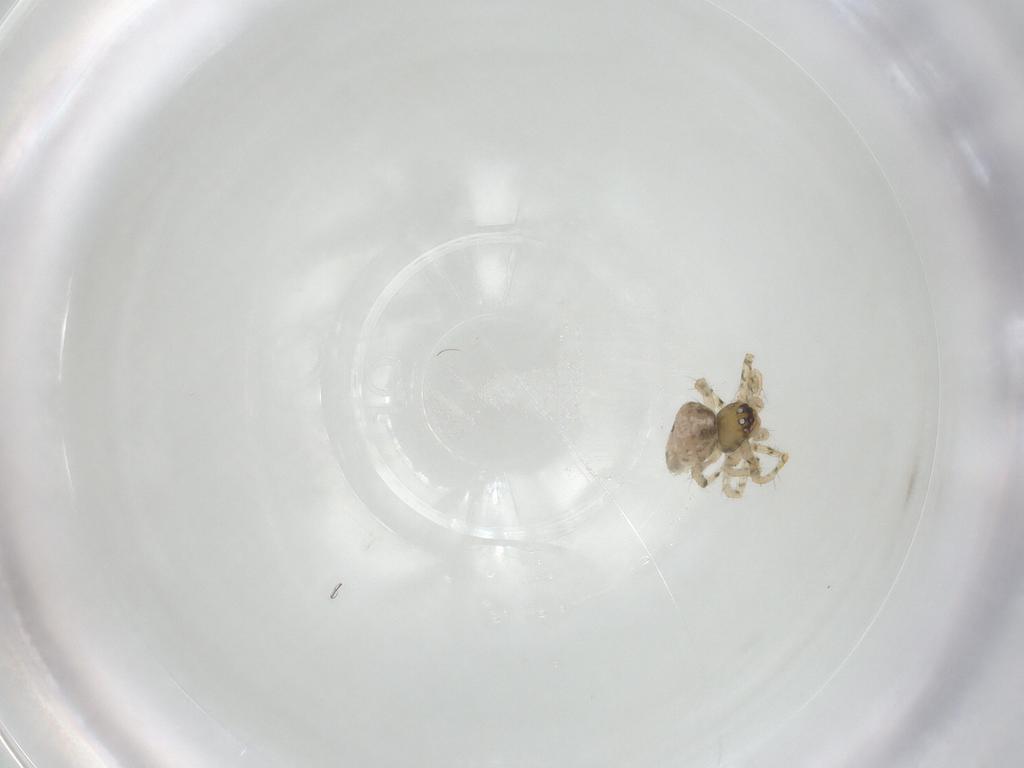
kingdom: Animalia
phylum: Arthropoda
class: Arachnida
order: Araneae
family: Theridiidae
